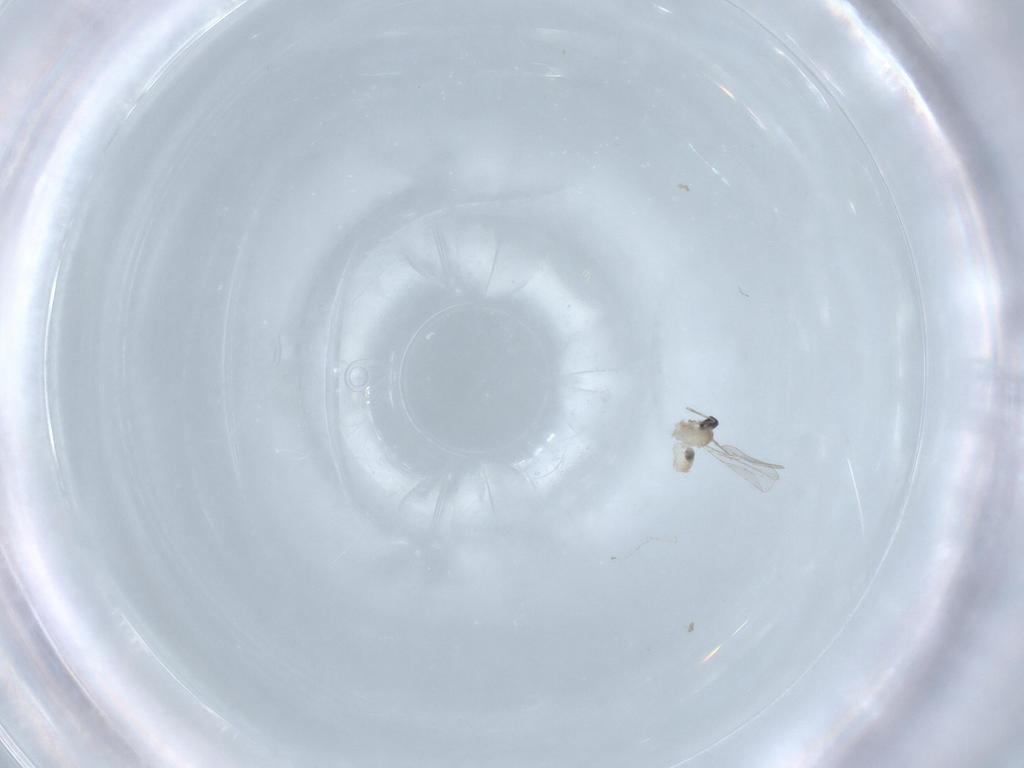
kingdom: Animalia
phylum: Arthropoda
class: Insecta
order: Diptera
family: Cecidomyiidae
